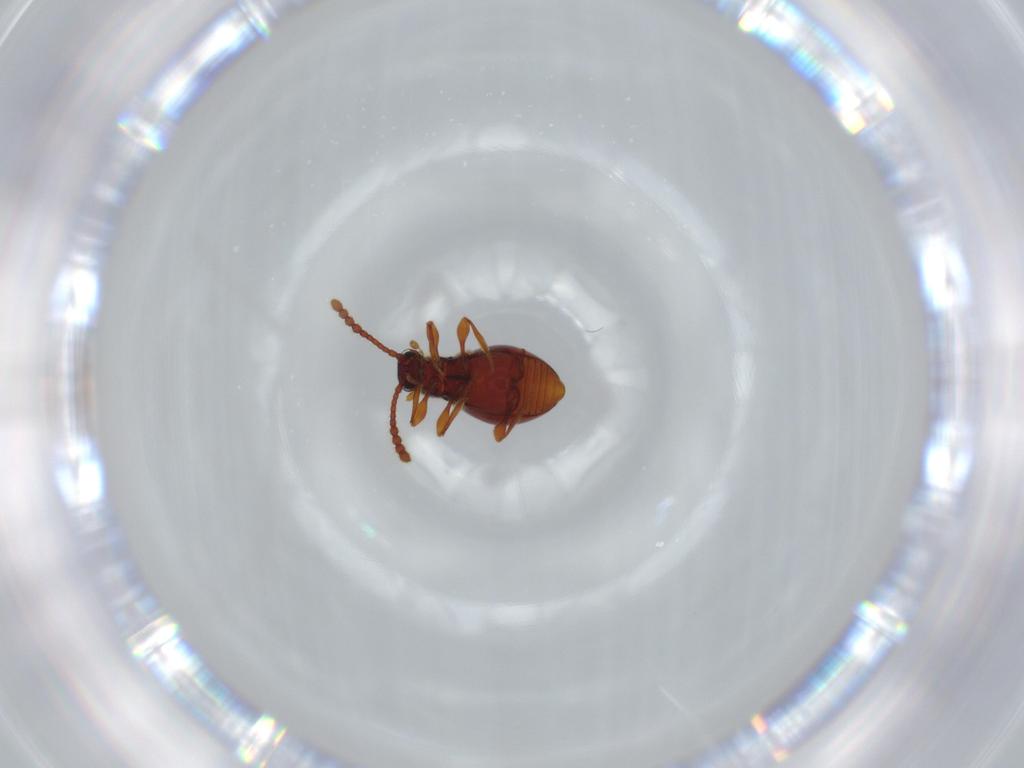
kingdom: Animalia
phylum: Arthropoda
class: Insecta
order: Coleoptera
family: Staphylinidae
